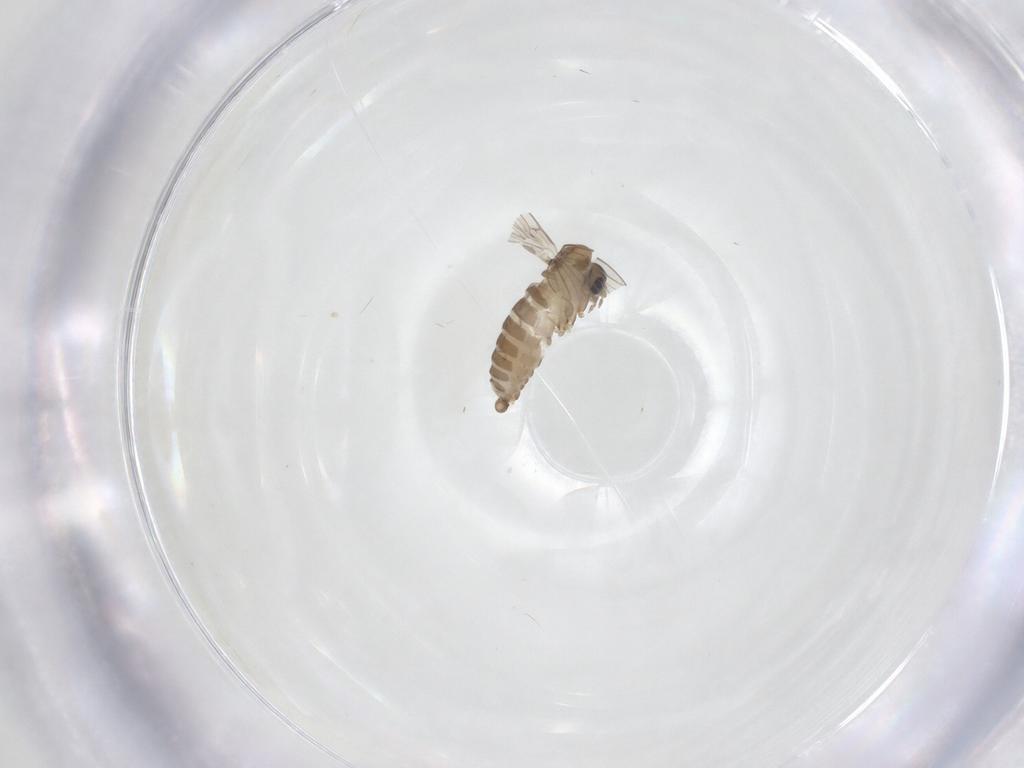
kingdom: Animalia
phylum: Arthropoda
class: Insecta
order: Diptera
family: Psychodidae
